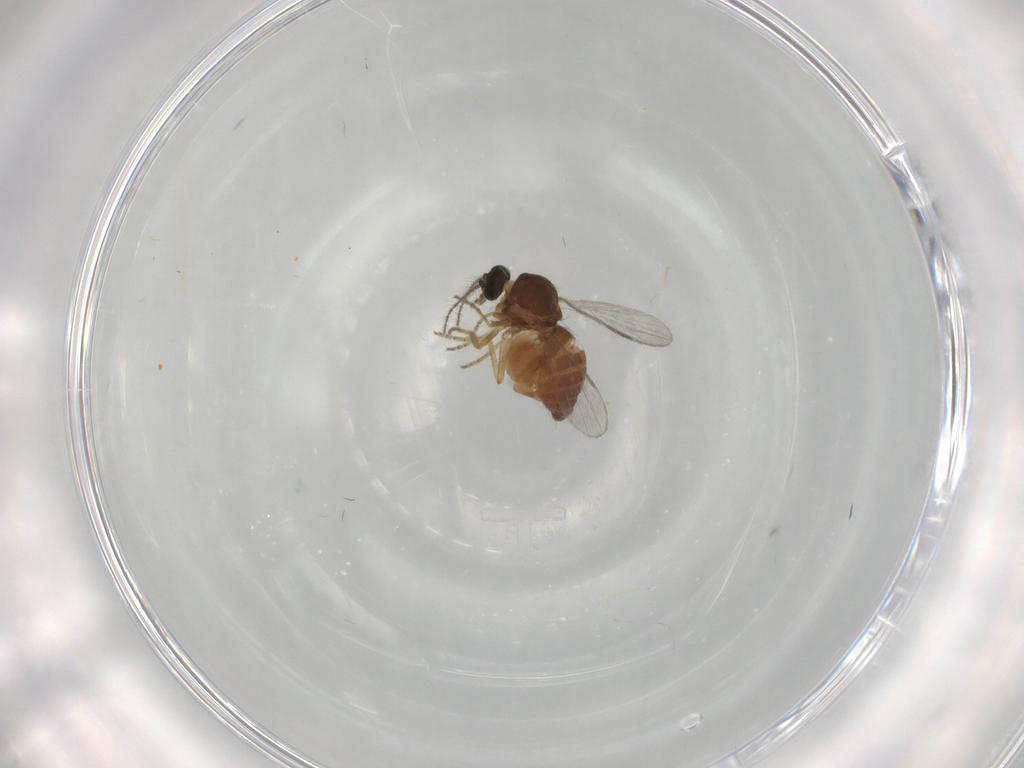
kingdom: Animalia
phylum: Arthropoda
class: Insecta
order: Diptera
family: Ceratopogonidae
